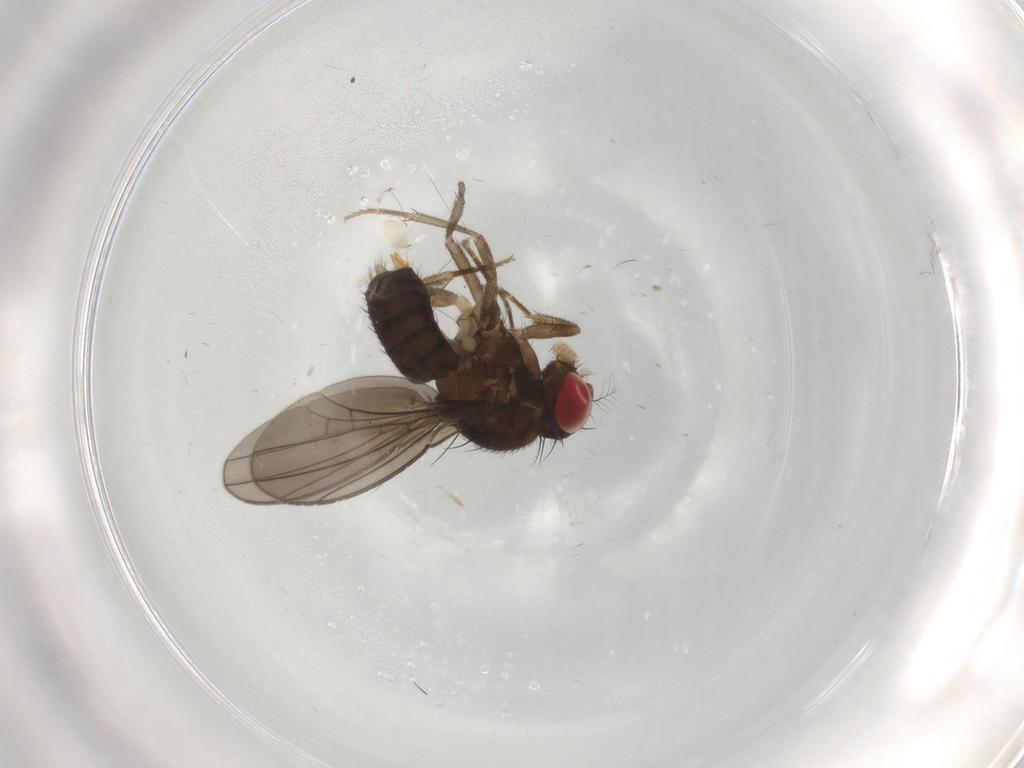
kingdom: Animalia
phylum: Arthropoda
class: Insecta
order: Diptera
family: Drosophilidae
